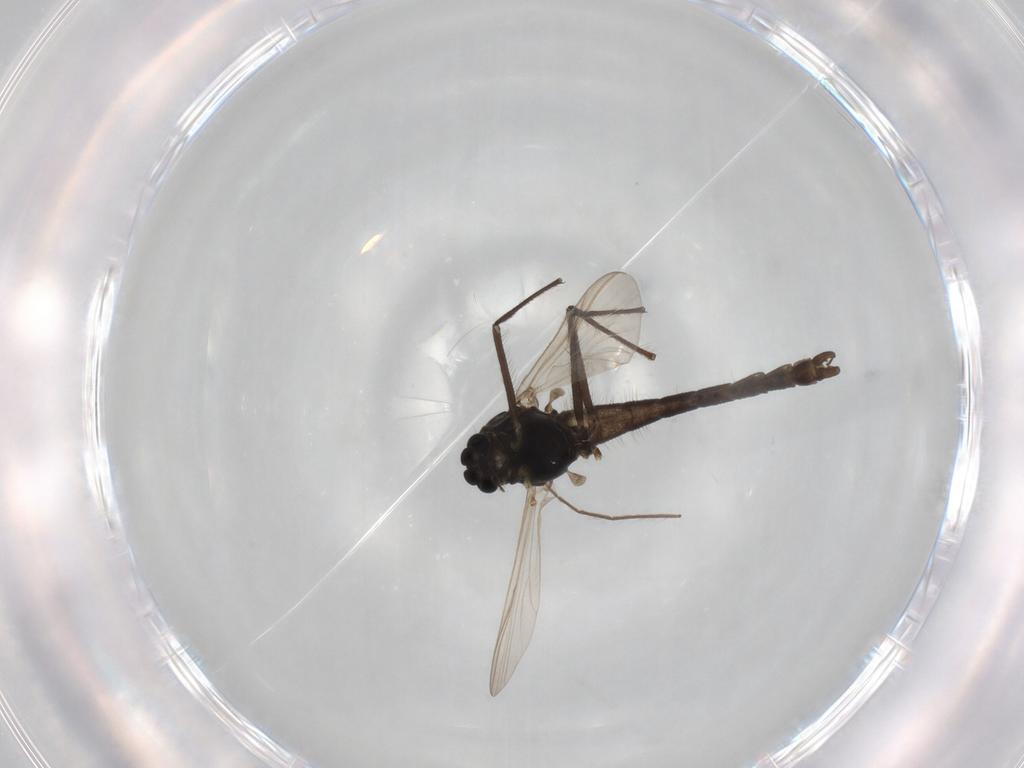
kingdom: Animalia
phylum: Arthropoda
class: Insecta
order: Diptera
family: Chironomidae
